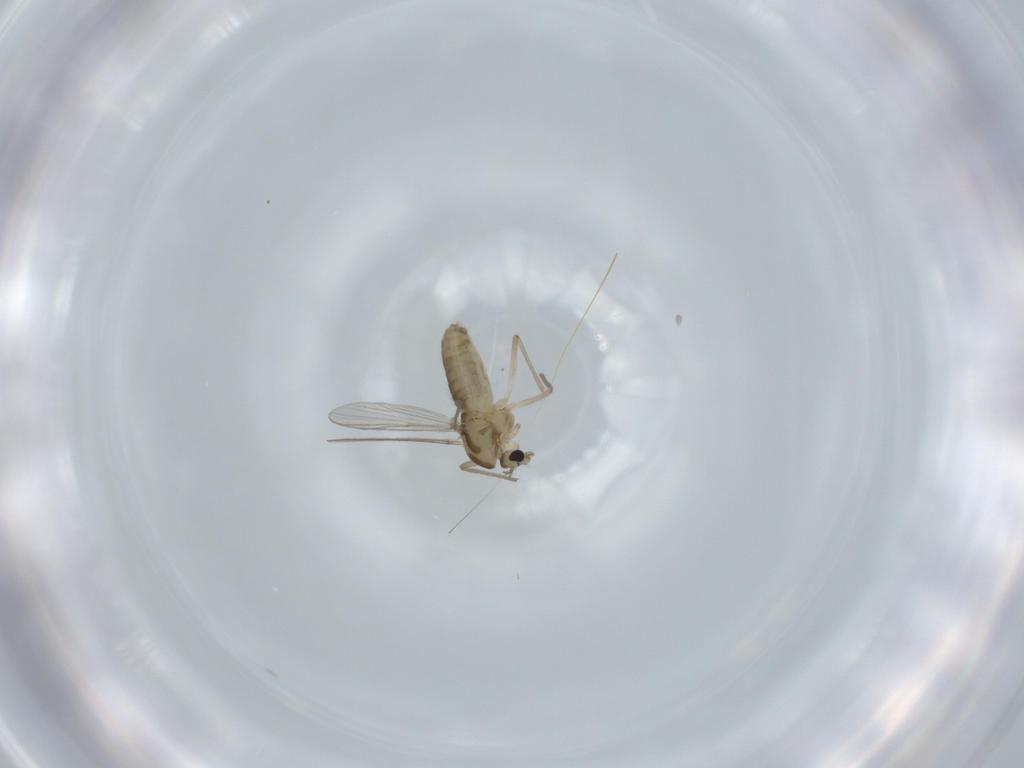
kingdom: Animalia
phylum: Arthropoda
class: Insecta
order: Diptera
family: Chironomidae
